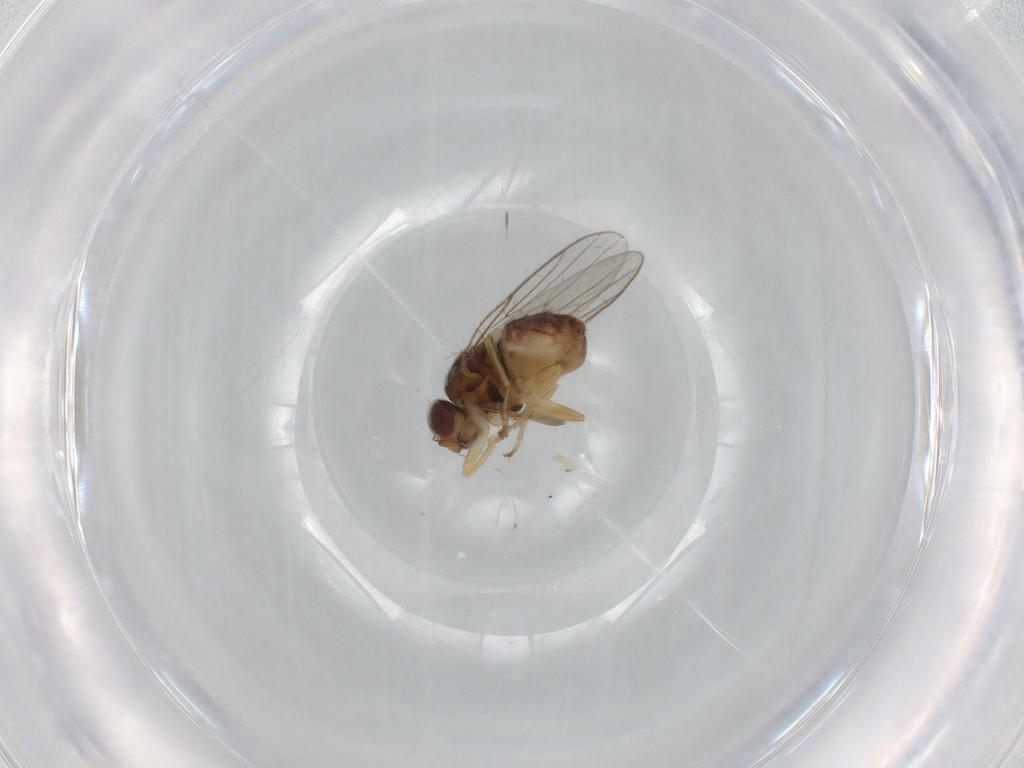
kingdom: Animalia
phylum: Arthropoda
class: Insecta
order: Diptera
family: Chloropidae
